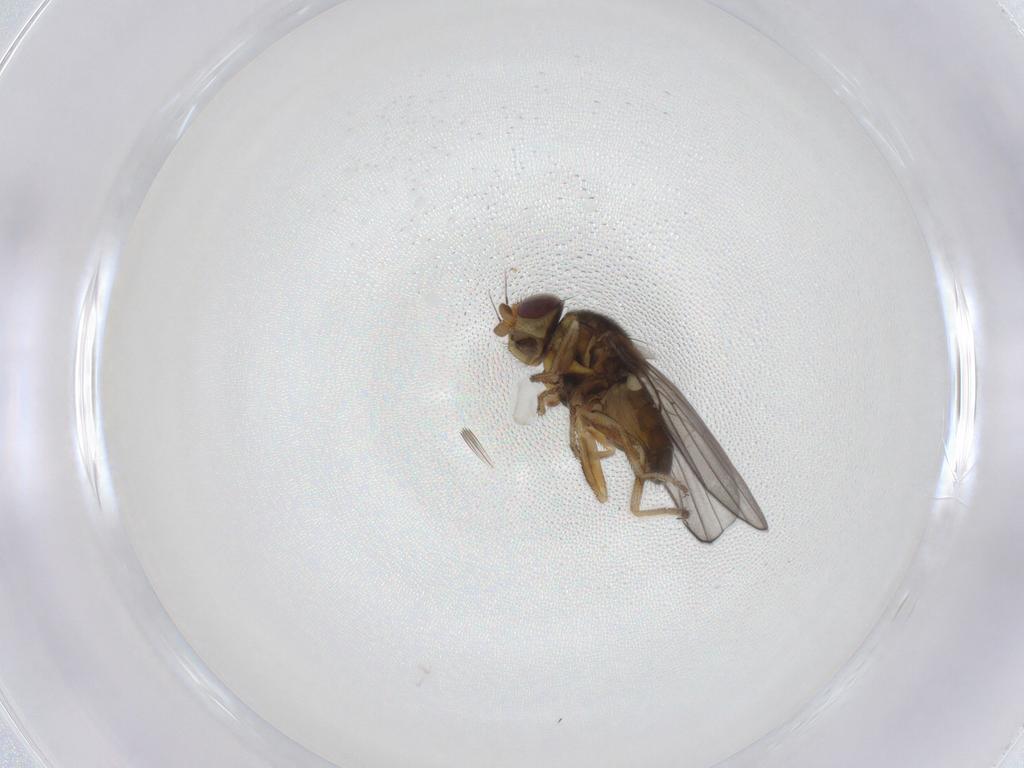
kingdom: Animalia
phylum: Arthropoda
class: Insecta
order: Diptera
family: Chloropidae
